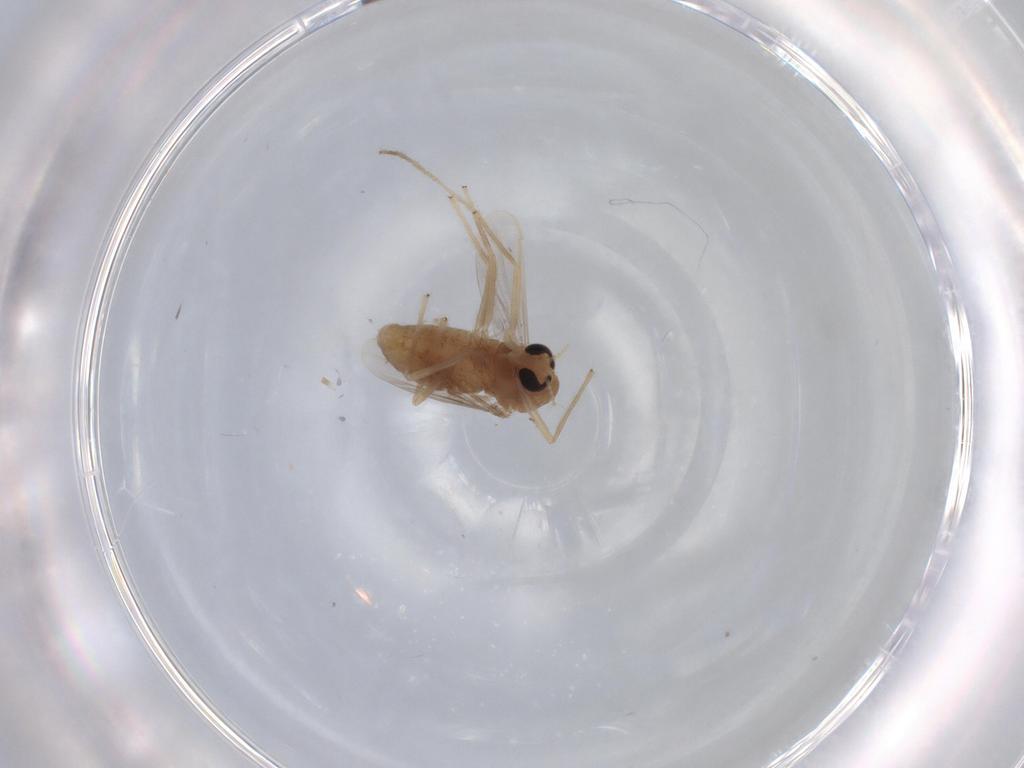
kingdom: Animalia
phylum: Arthropoda
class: Insecta
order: Diptera
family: Chironomidae
